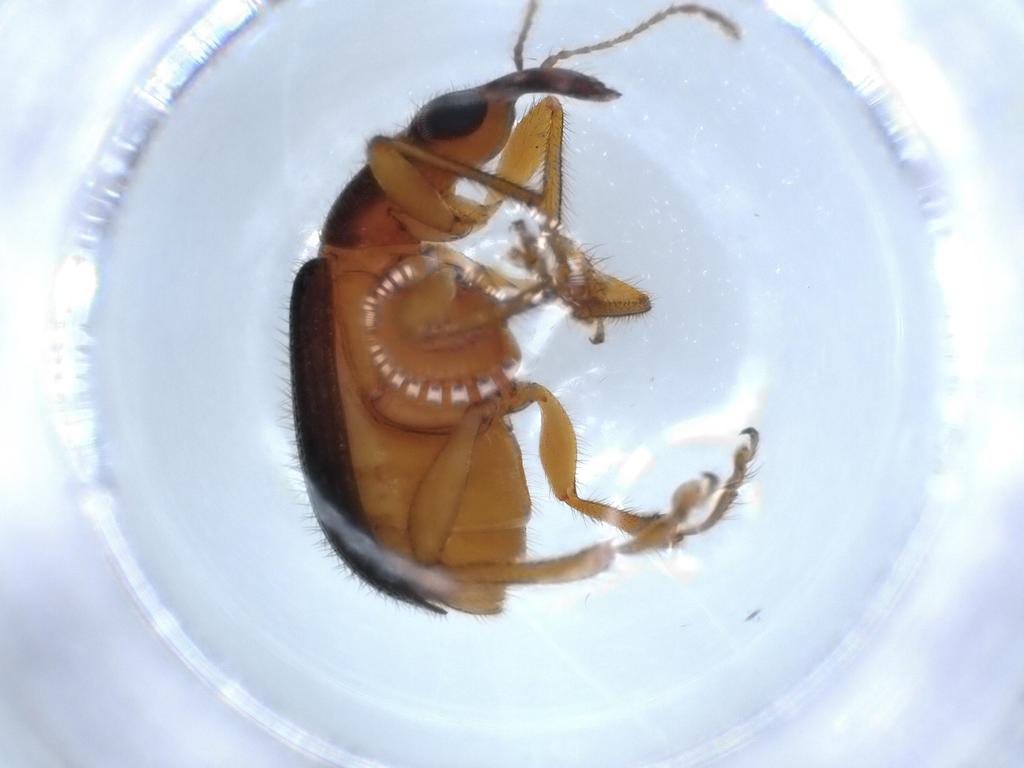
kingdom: Animalia
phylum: Arthropoda
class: Insecta
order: Coleoptera
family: Attelabidae
